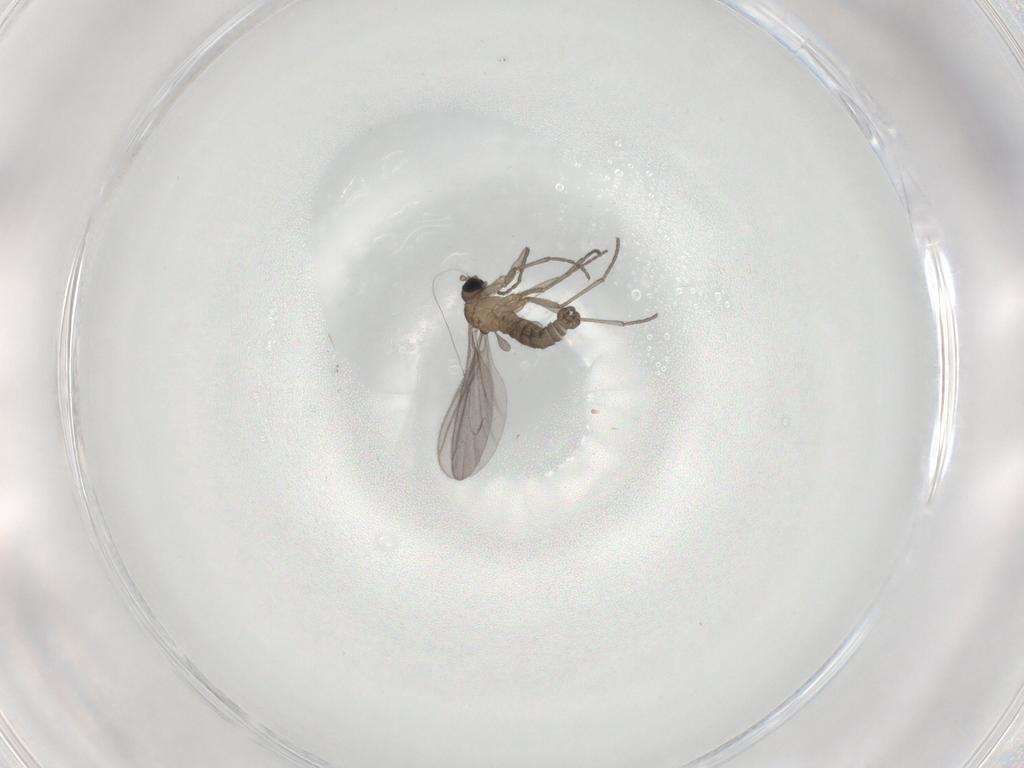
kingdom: Animalia
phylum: Arthropoda
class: Insecta
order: Diptera
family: Sciaridae
